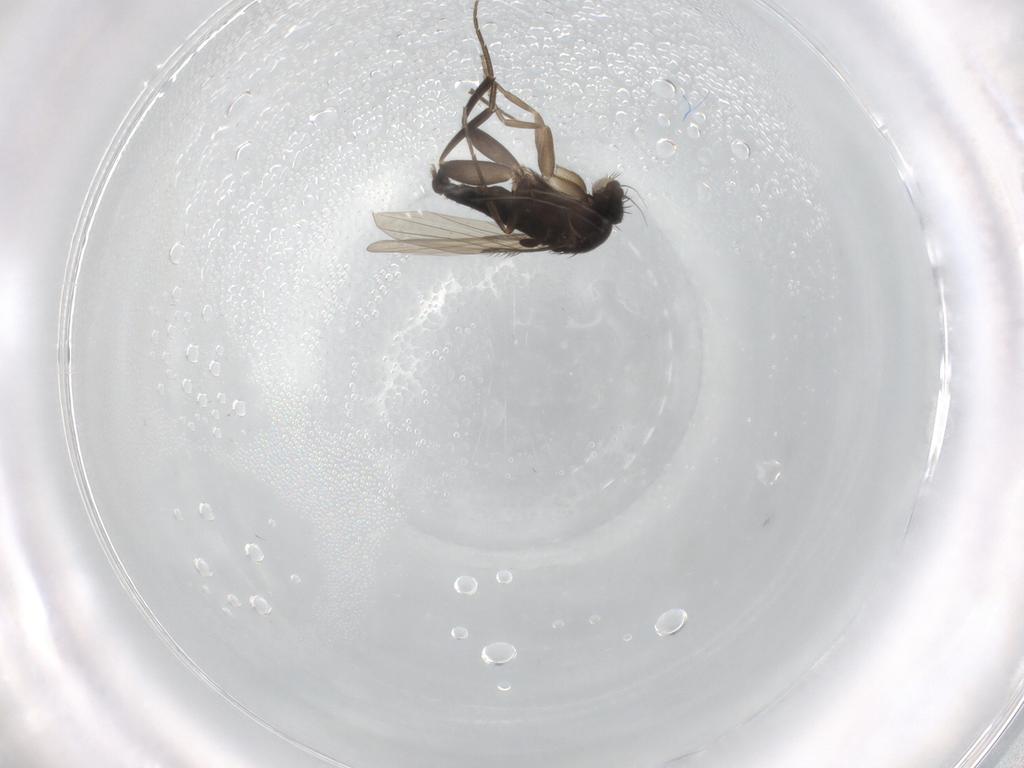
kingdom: Animalia
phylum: Arthropoda
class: Insecta
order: Diptera
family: Phoridae
